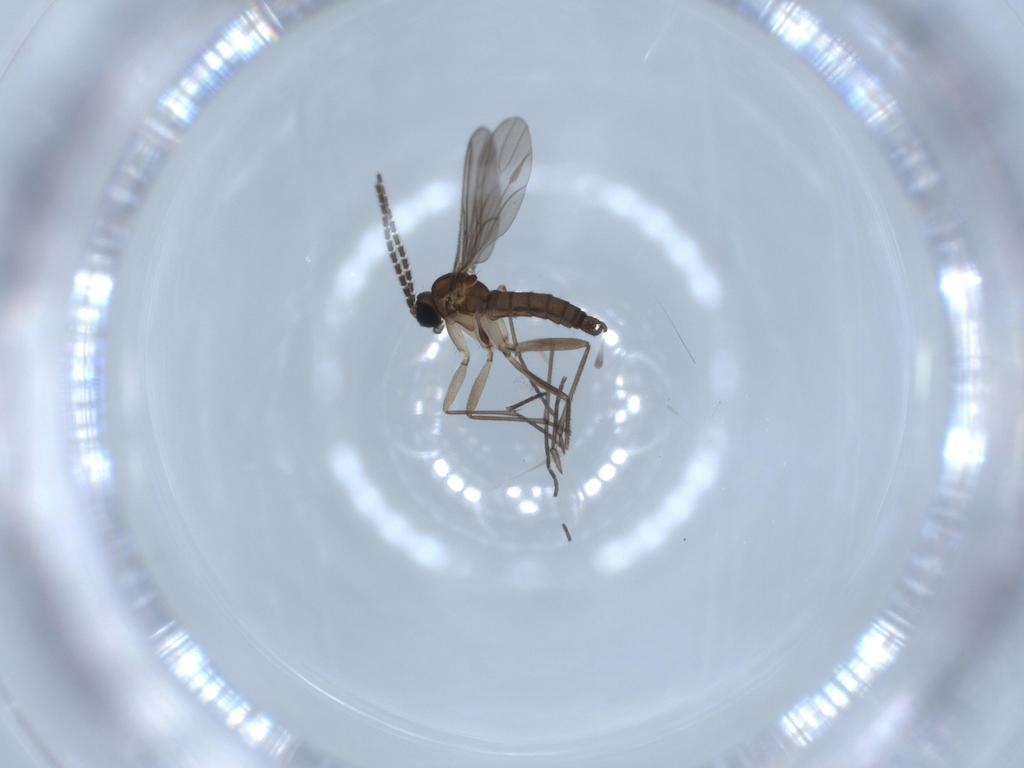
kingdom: Animalia
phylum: Arthropoda
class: Insecta
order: Diptera
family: Sciaridae
